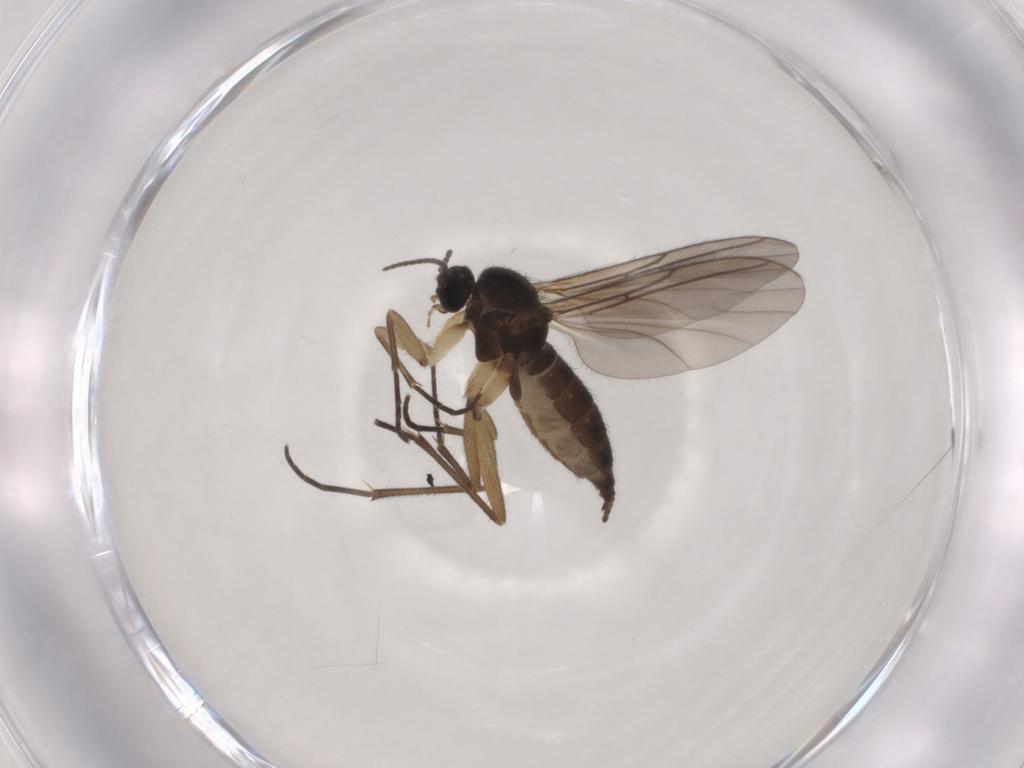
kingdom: Animalia
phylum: Arthropoda
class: Insecta
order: Diptera
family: Sciaridae
